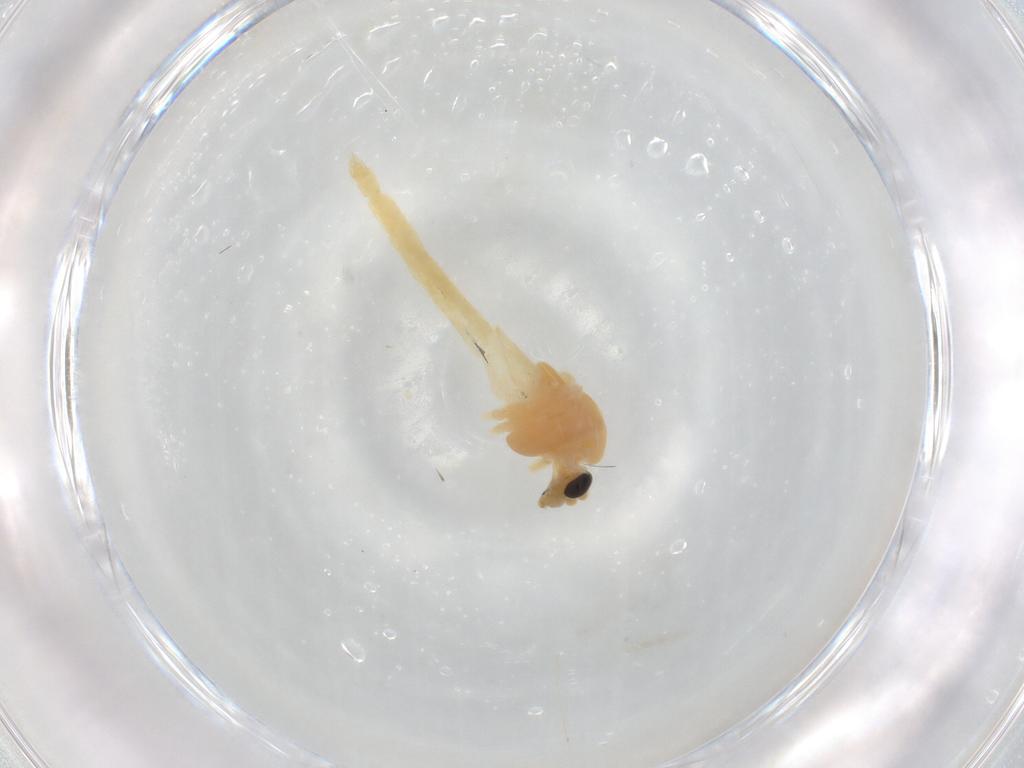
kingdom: Animalia
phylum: Arthropoda
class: Insecta
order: Diptera
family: Chironomidae
